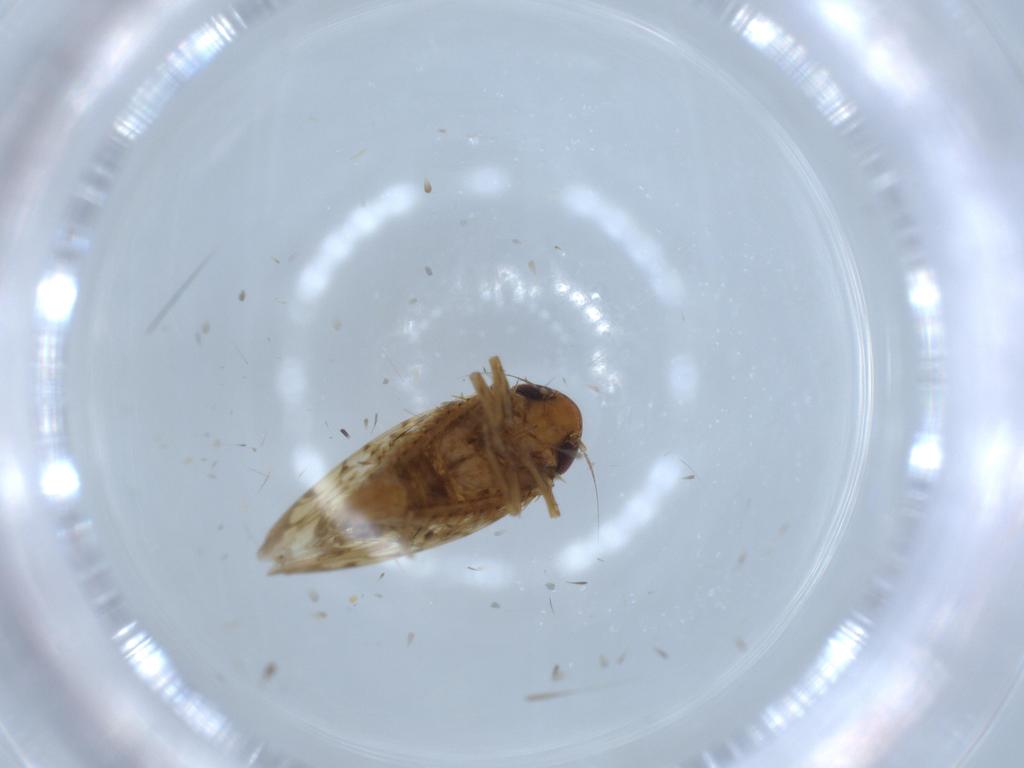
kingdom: Animalia
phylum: Arthropoda
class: Insecta
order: Hemiptera
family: Cicadellidae
